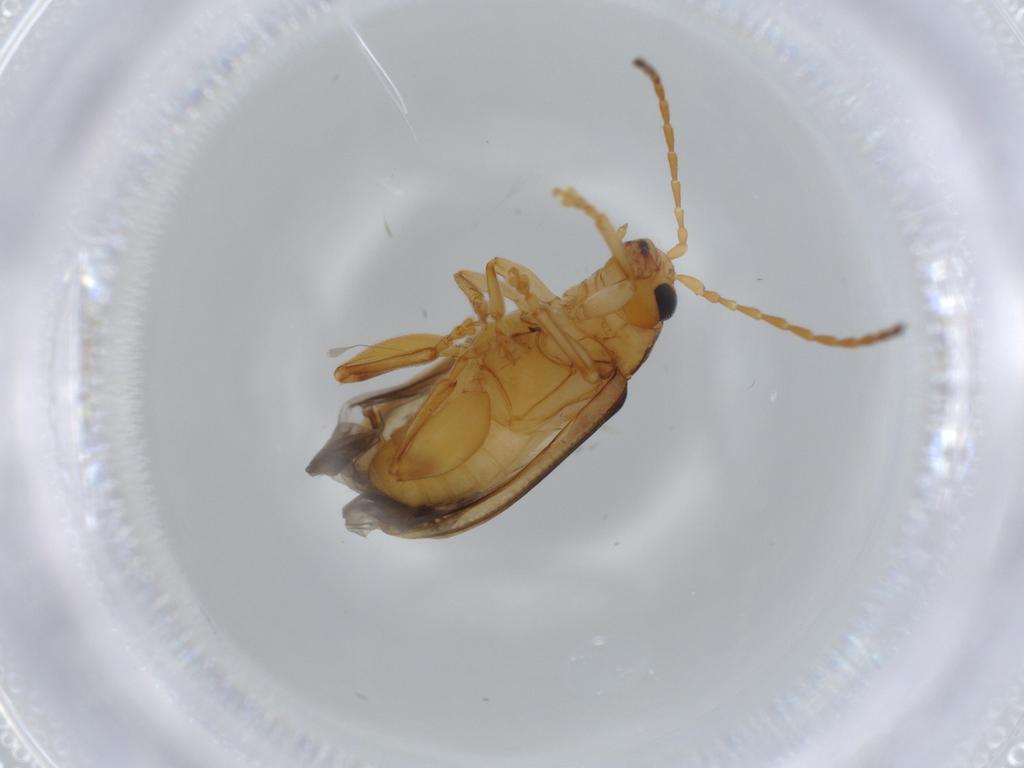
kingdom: Animalia
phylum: Arthropoda
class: Insecta
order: Coleoptera
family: Chrysomelidae
